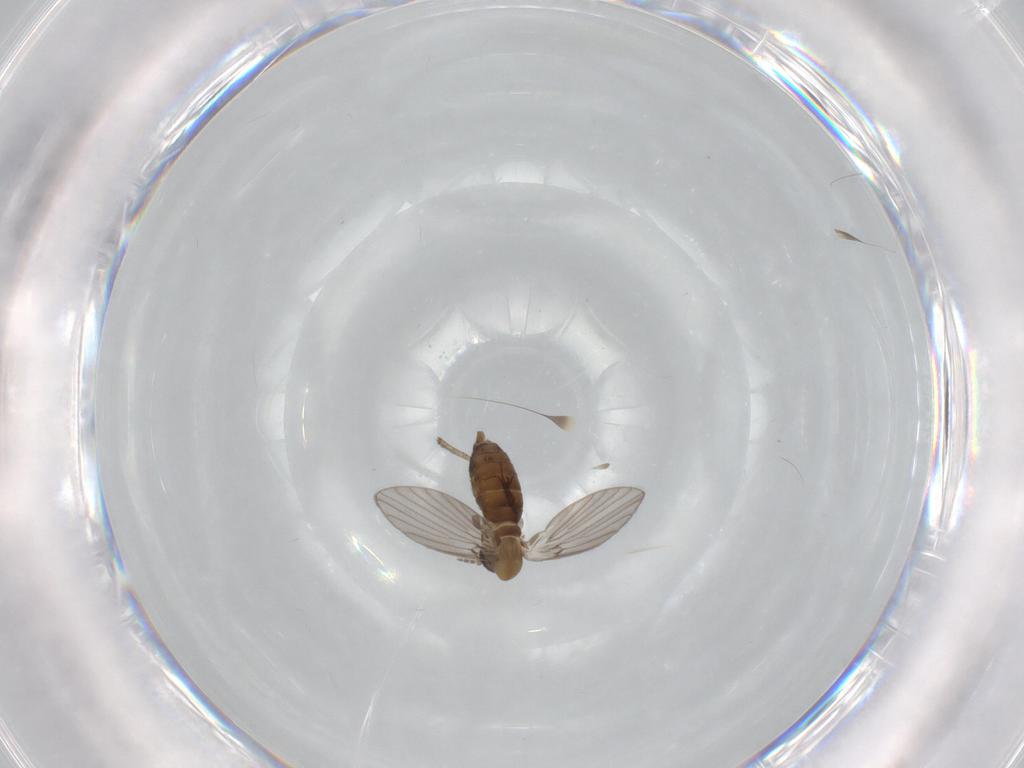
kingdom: Animalia
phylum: Arthropoda
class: Insecta
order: Diptera
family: Psychodidae
